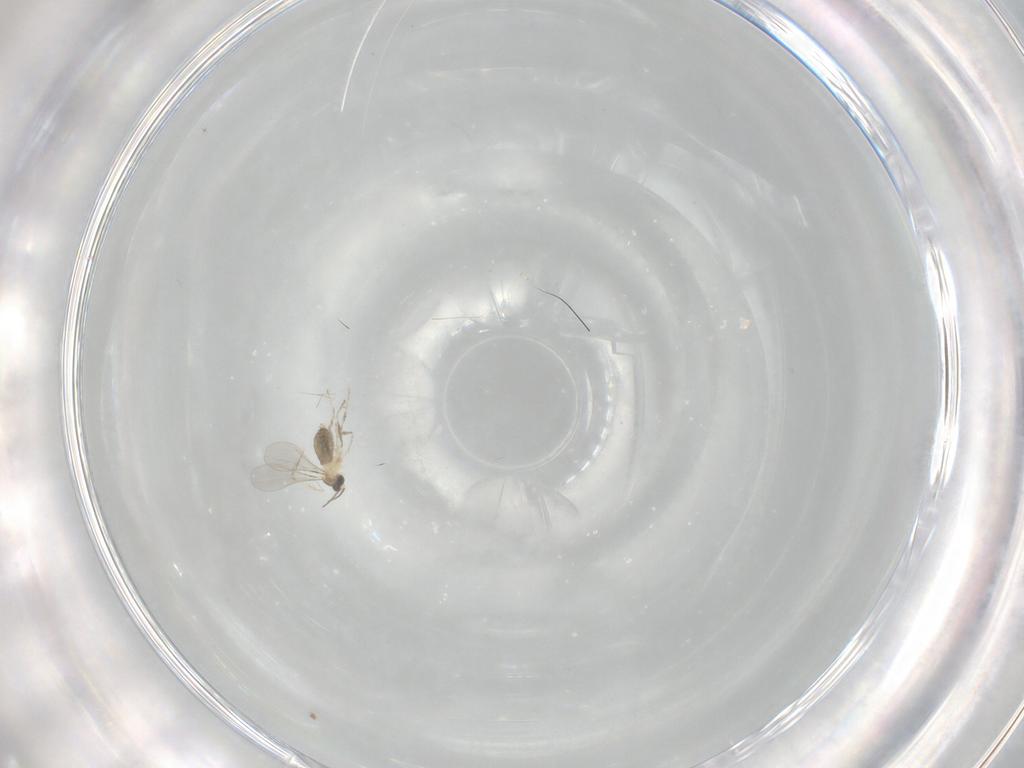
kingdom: Animalia
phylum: Arthropoda
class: Insecta
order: Diptera
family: Cecidomyiidae
